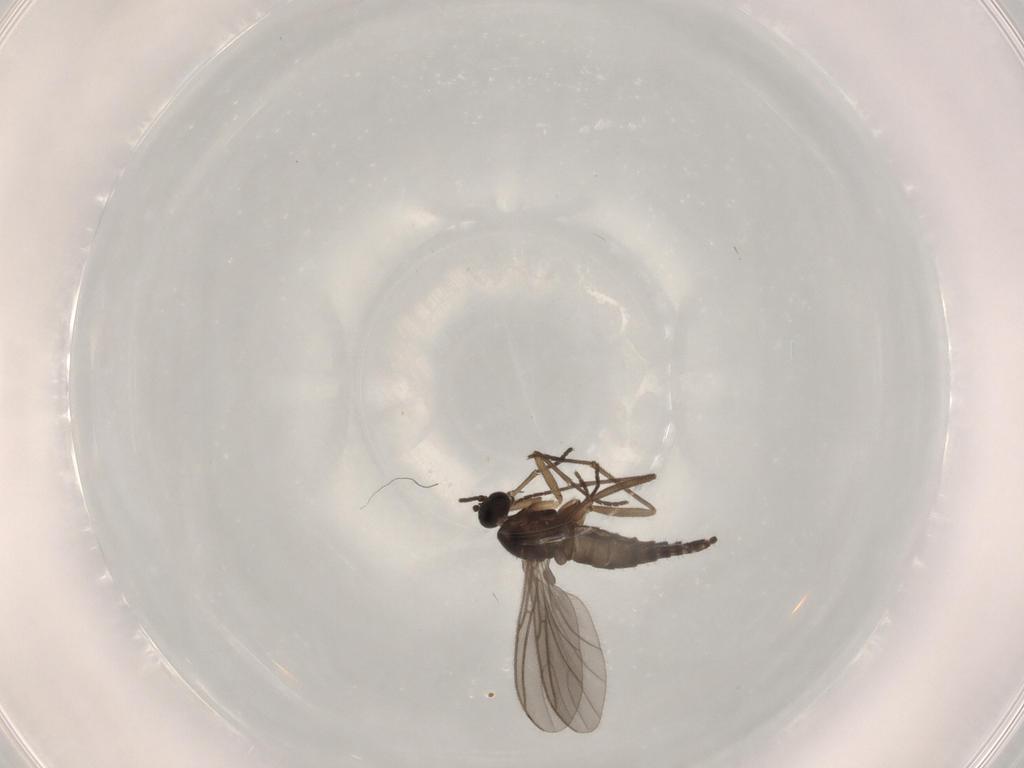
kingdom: Animalia
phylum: Arthropoda
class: Insecta
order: Diptera
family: Sciaridae
